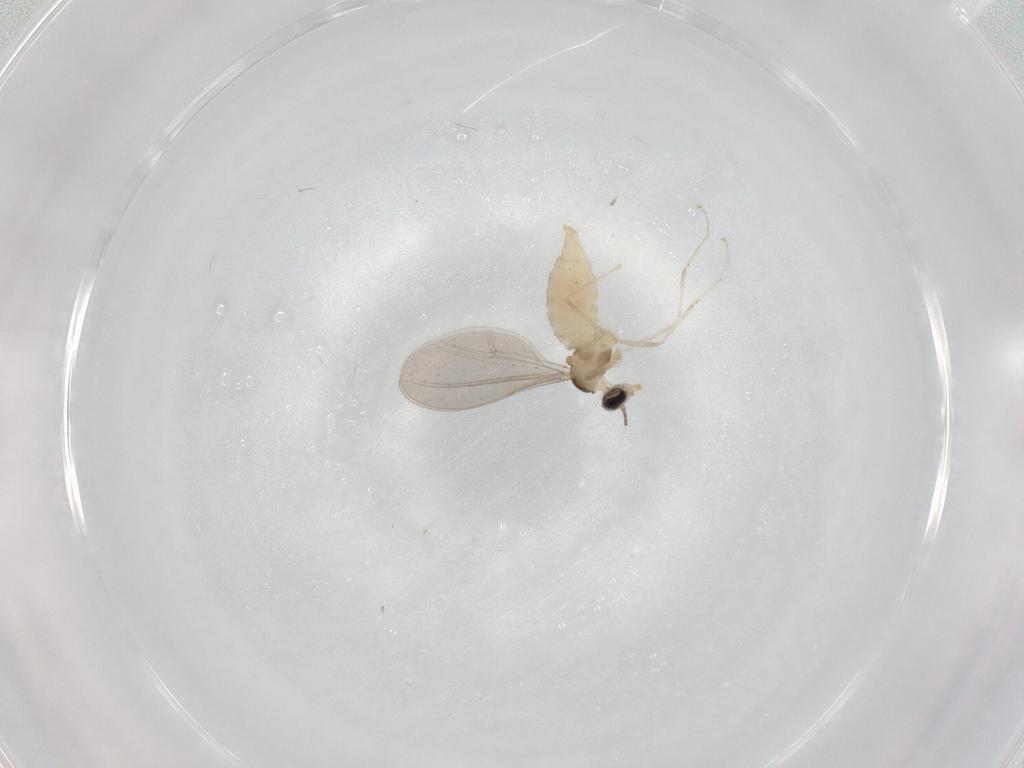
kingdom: Animalia
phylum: Arthropoda
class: Insecta
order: Diptera
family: Cecidomyiidae
